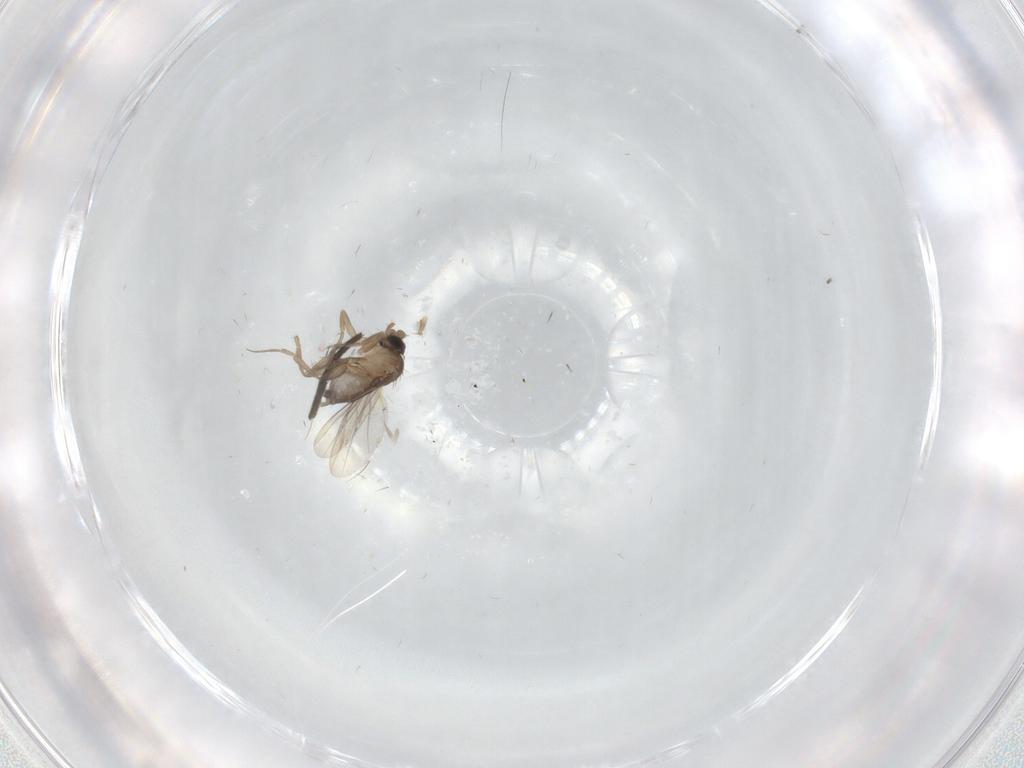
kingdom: Animalia
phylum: Arthropoda
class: Insecta
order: Diptera
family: Phoridae
